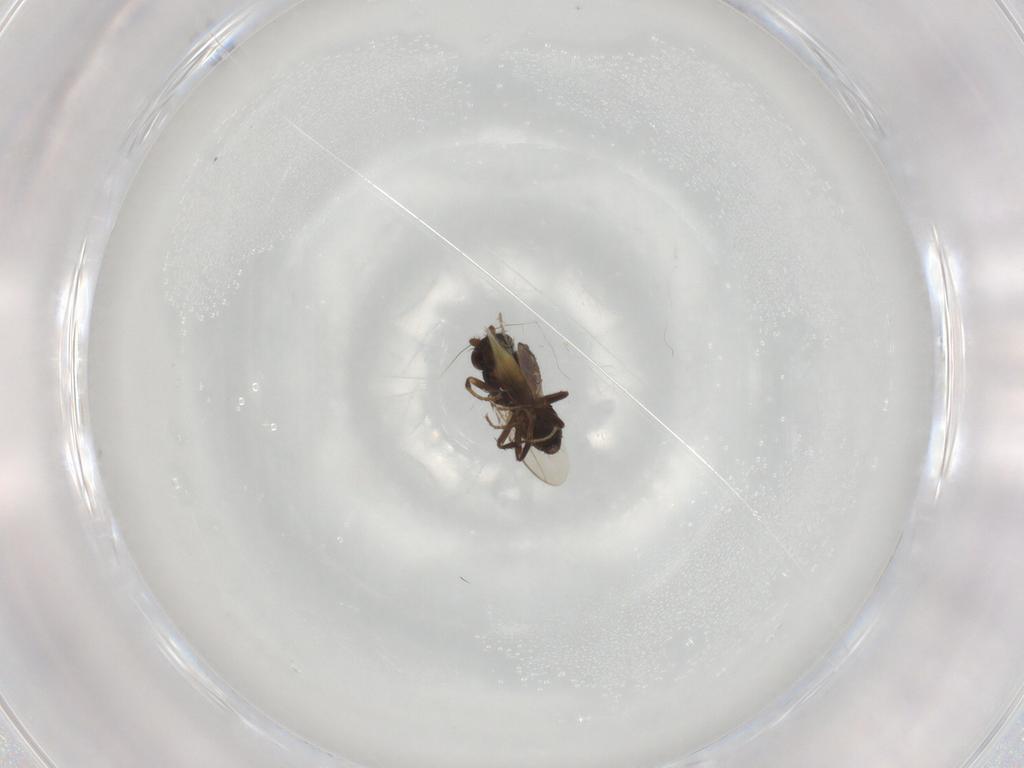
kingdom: Animalia
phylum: Arthropoda
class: Insecta
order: Diptera
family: Sphaeroceridae
